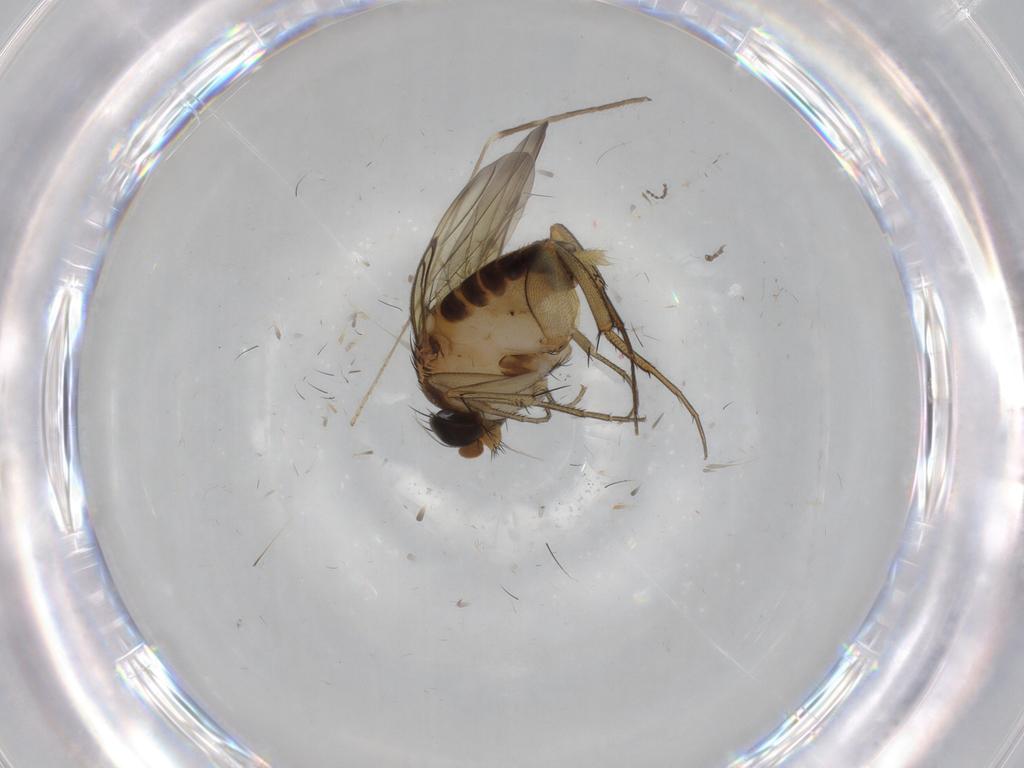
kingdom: Animalia
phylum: Arthropoda
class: Insecta
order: Diptera
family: Phoridae
